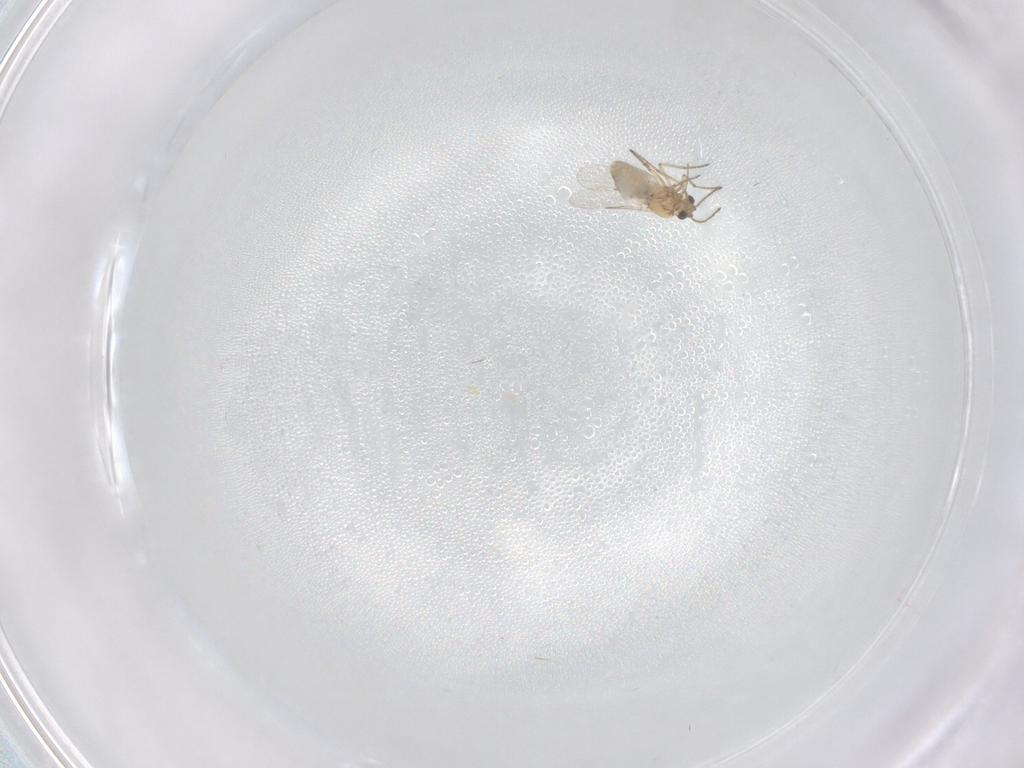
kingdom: Animalia
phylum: Arthropoda
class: Insecta
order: Diptera
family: Ceratopogonidae
